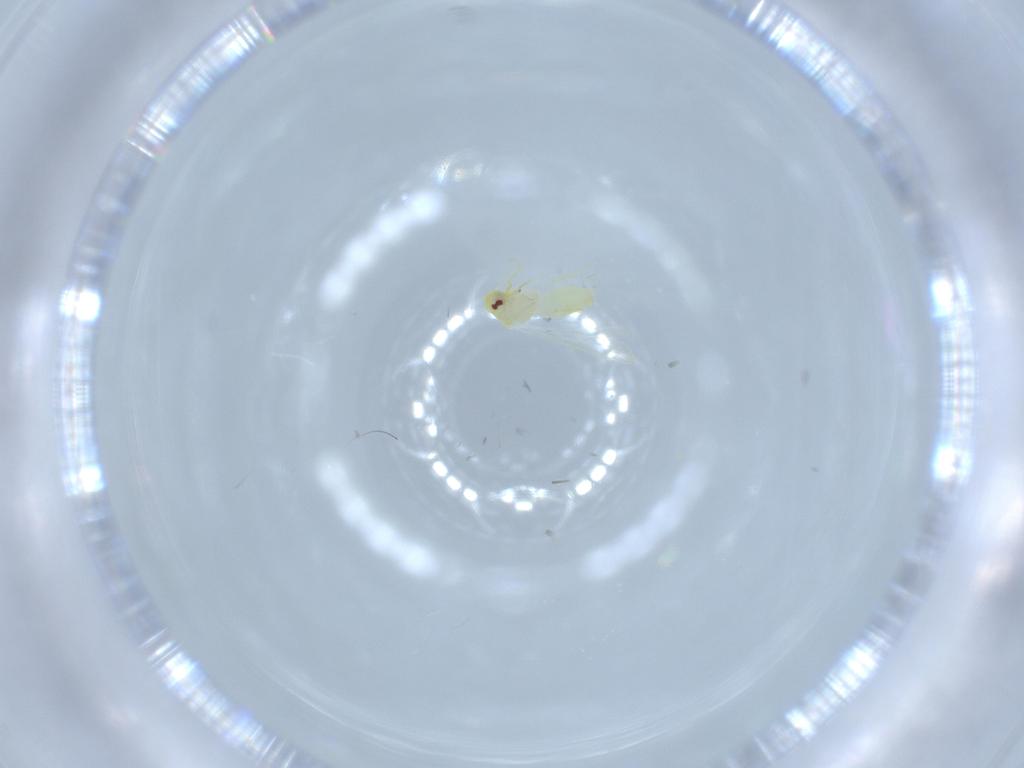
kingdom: Animalia
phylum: Arthropoda
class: Insecta
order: Hemiptera
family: Aleyrodidae
